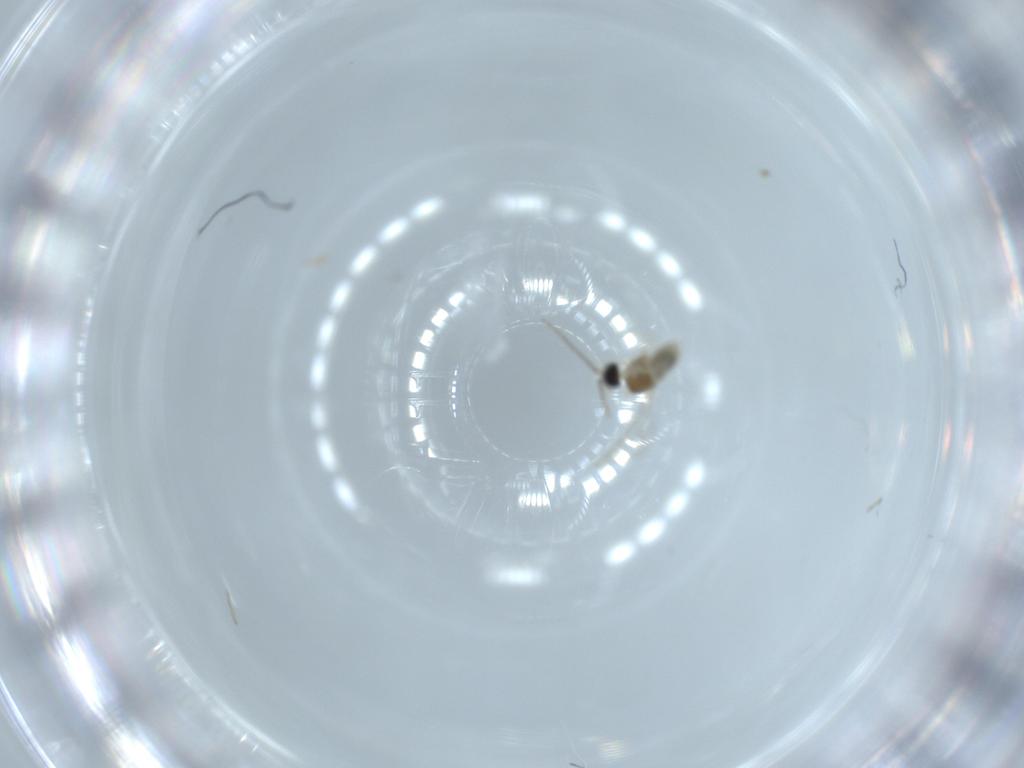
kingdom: Animalia
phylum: Arthropoda
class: Insecta
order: Diptera
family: Cecidomyiidae
